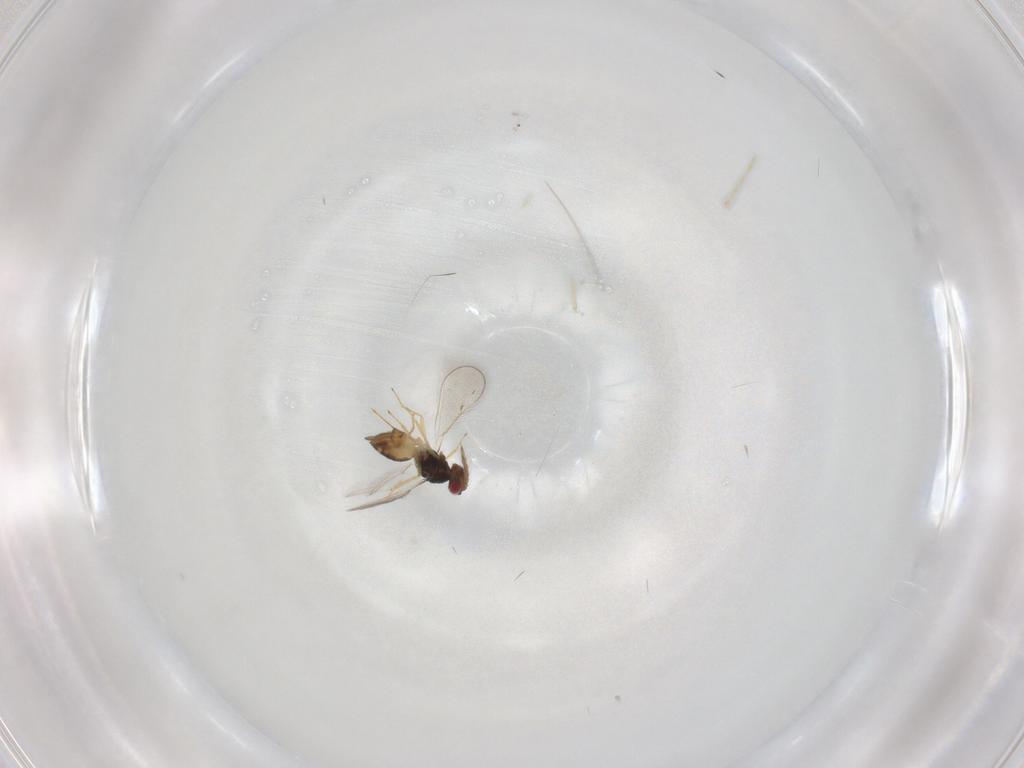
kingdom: Animalia
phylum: Arthropoda
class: Insecta
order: Hymenoptera
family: Eulophidae
